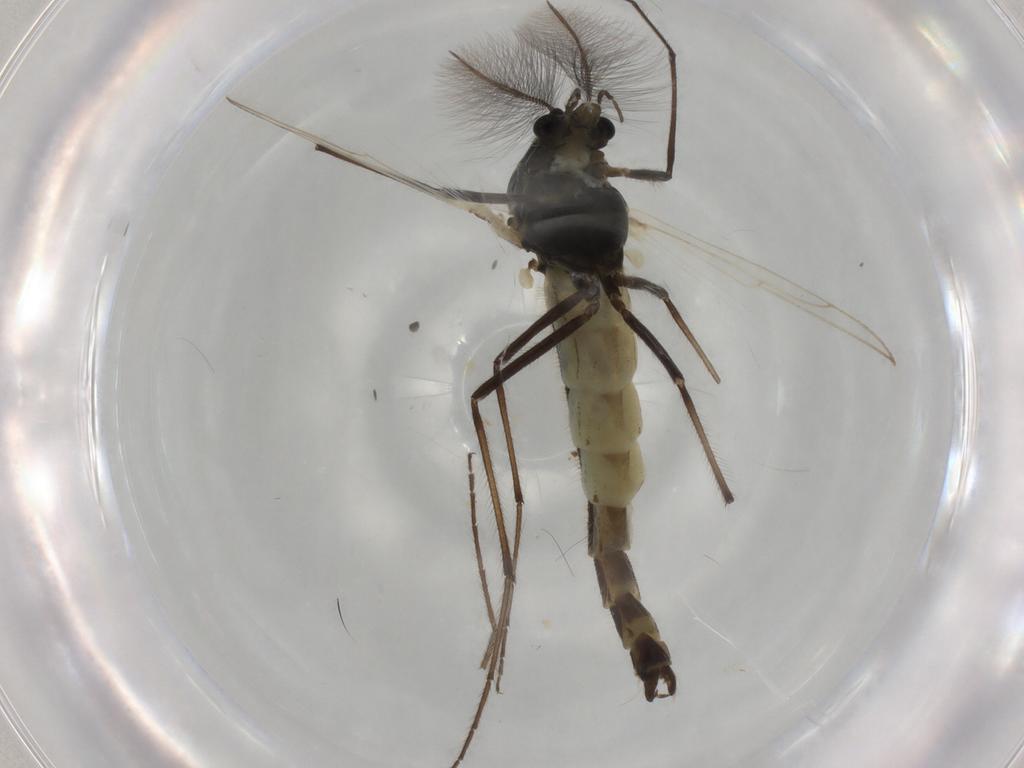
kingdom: Animalia
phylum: Arthropoda
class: Insecta
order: Diptera
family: Chironomidae
